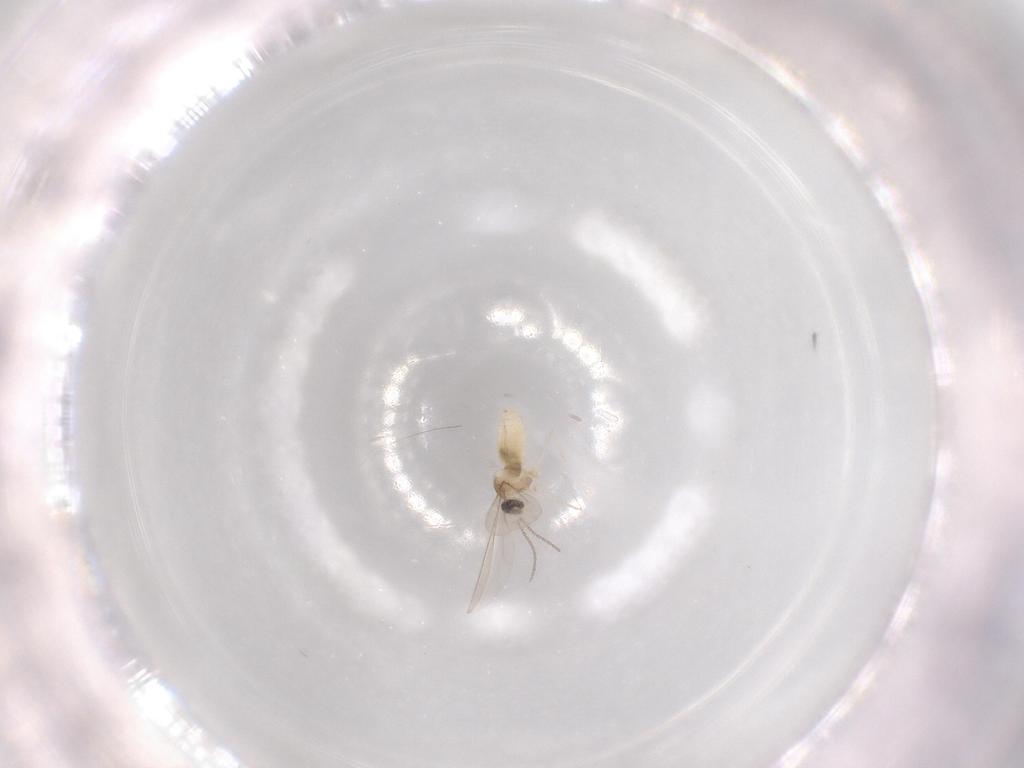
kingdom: Animalia
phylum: Arthropoda
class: Insecta
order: Diptera
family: Cecidomyiidae
